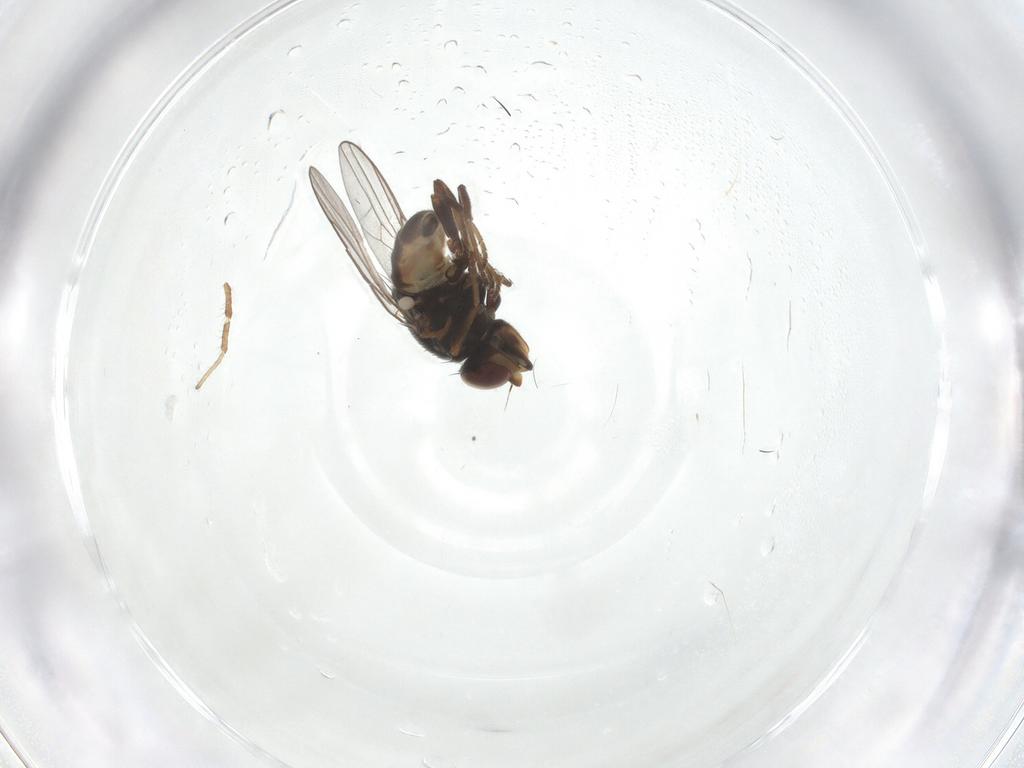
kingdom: Animalia
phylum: Arthropoda
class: Insecta
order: Diptera
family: Chloropidae
